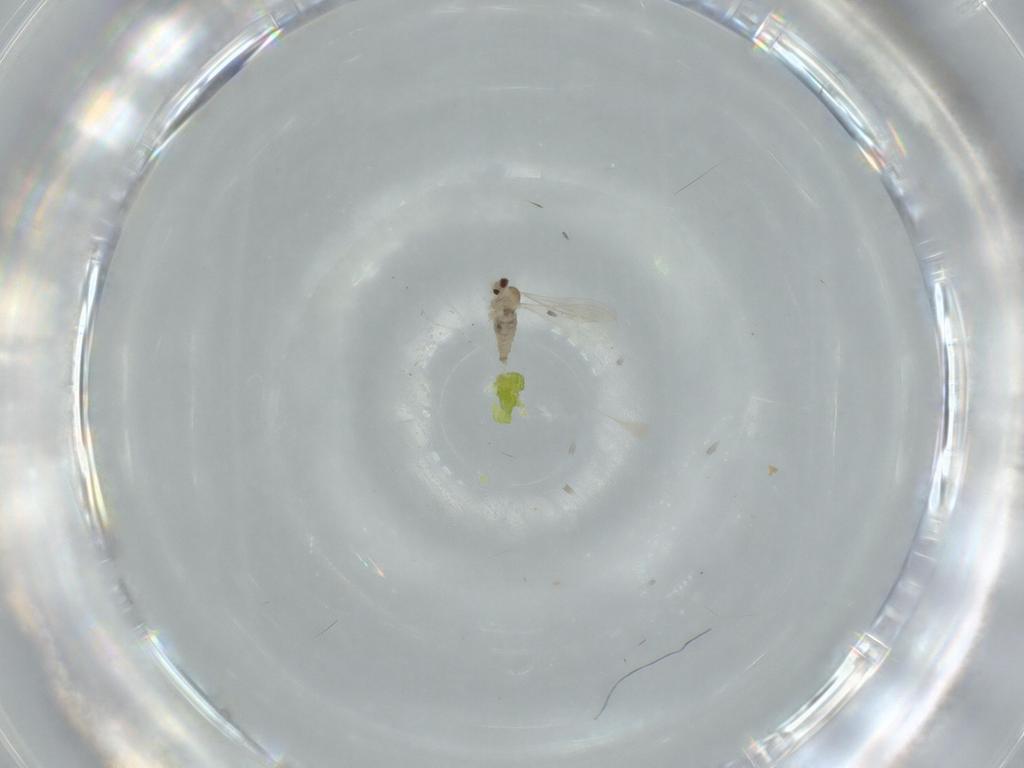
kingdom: Animalia
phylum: Arthropoda
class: Insecta
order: Diptera
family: Cecidomyiidae
